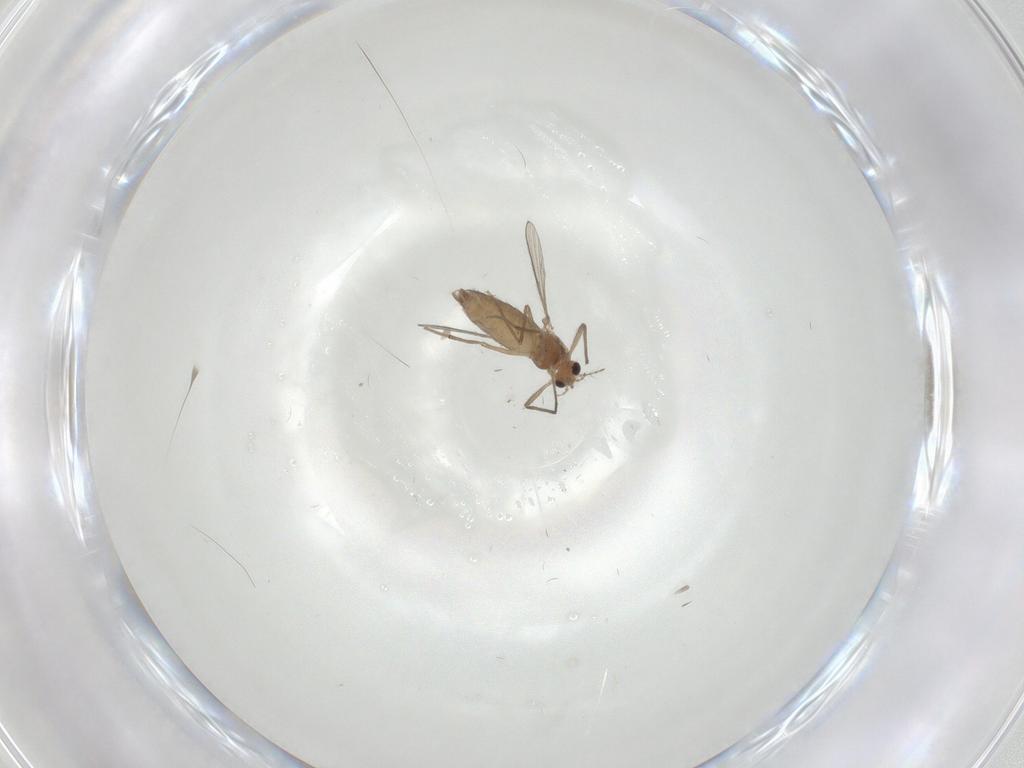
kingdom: Animalia
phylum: Arthropoda
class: Insecta
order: Diptera
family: Chironomidae
